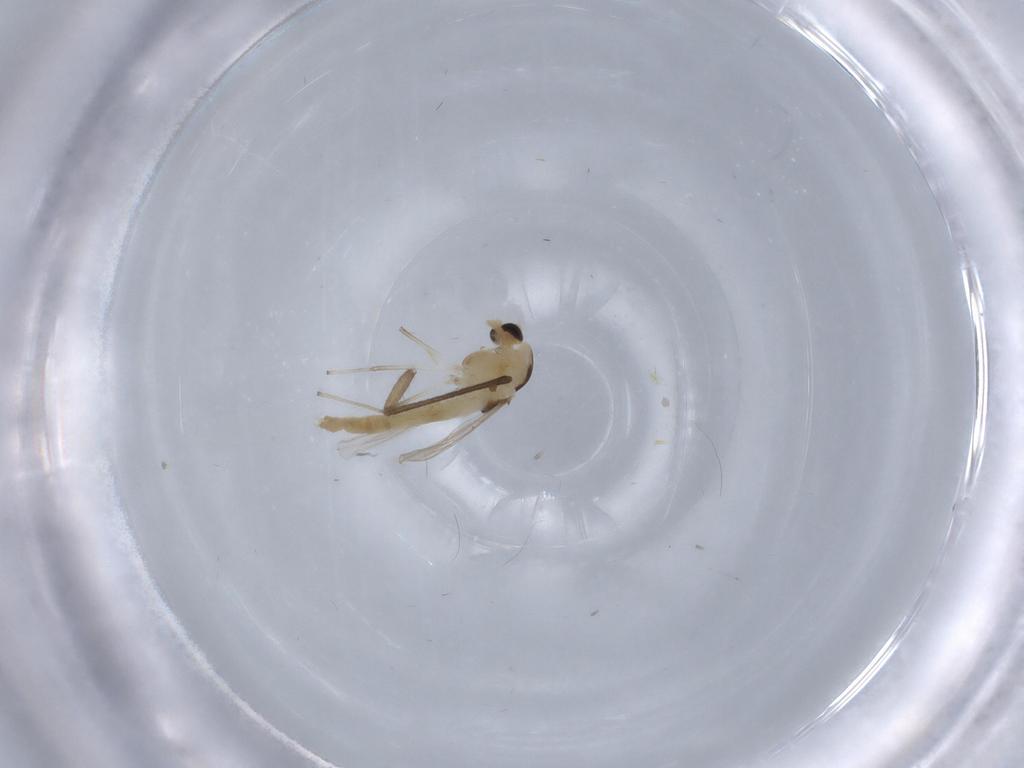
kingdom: Animalia
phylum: Arthropoda
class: Insecta
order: Diptera
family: Chironomidae
